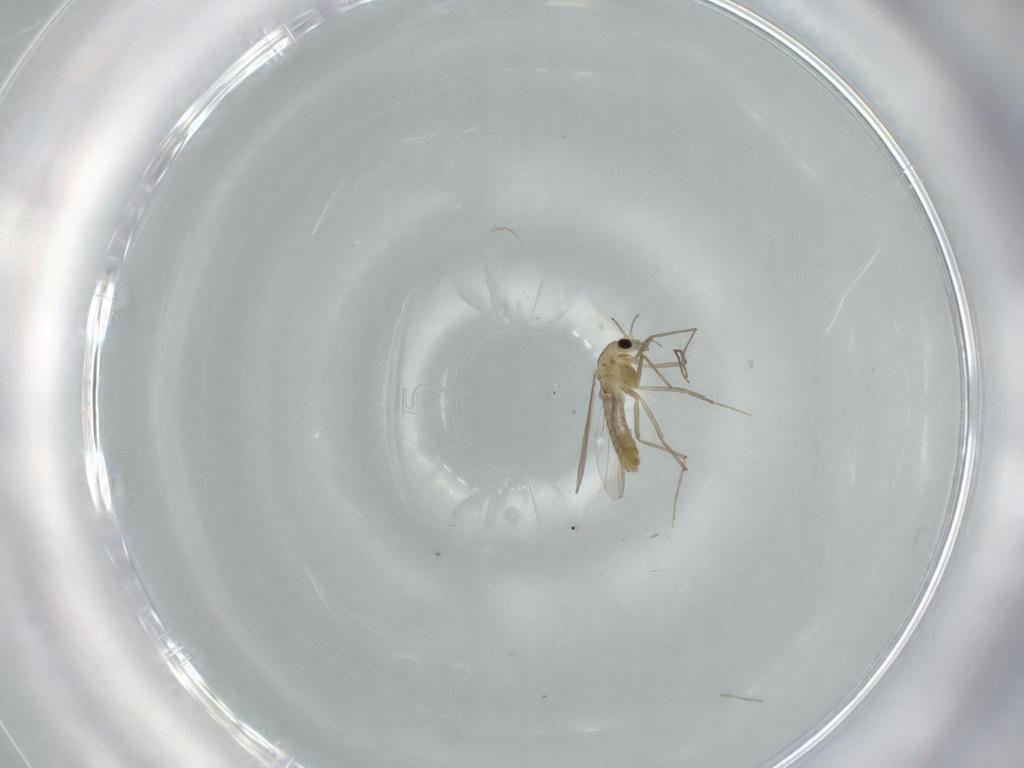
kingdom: Animalia
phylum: Arthropoda
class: Insecta
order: Diptera
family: Chironomidae
